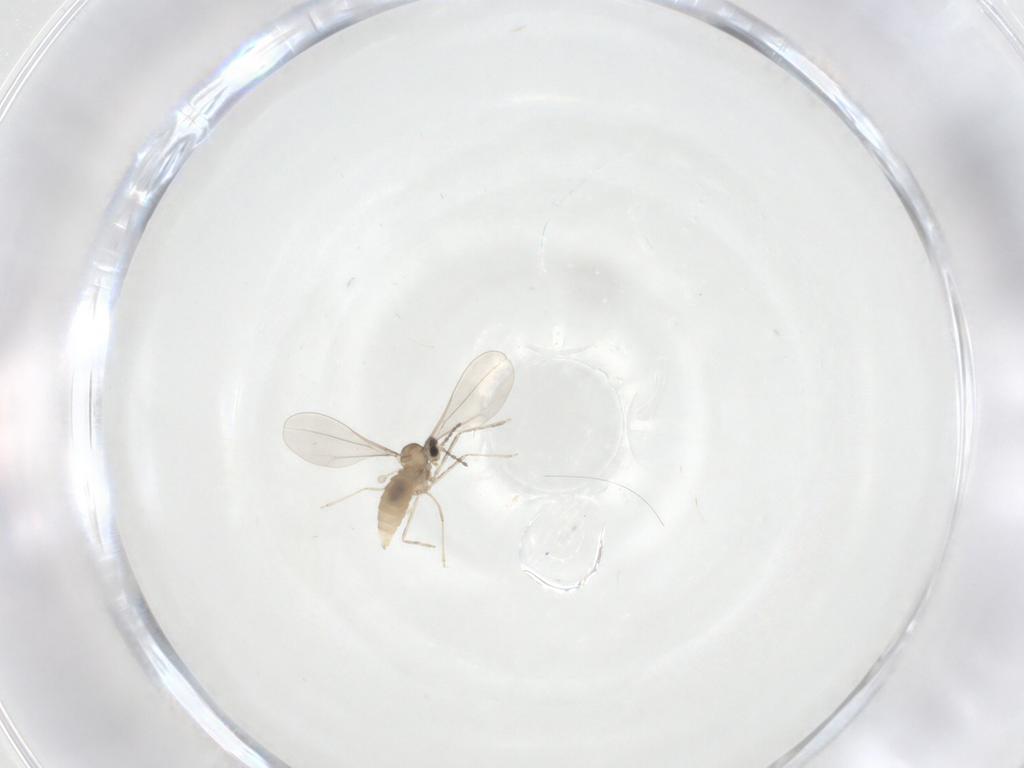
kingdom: Animalia
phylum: Arthropoda
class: Insecta
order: Diptera
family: Cecidomyiidae
